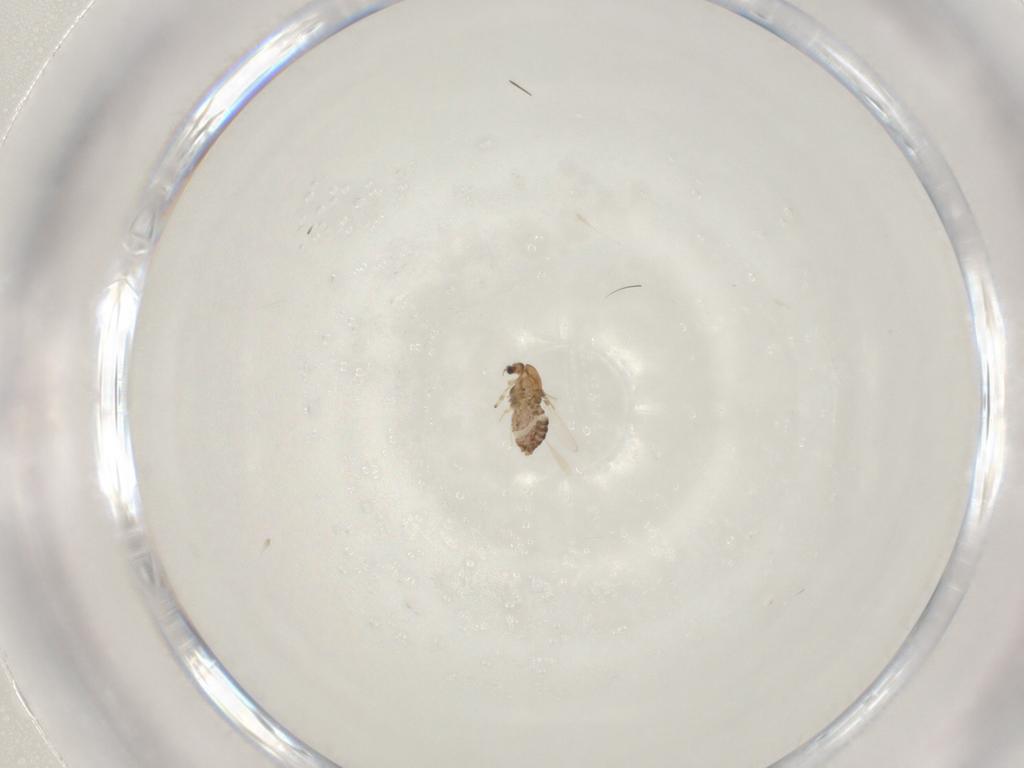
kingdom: Animalia
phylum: Arthropoda
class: Insecta
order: Diptera
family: Chironomidae
